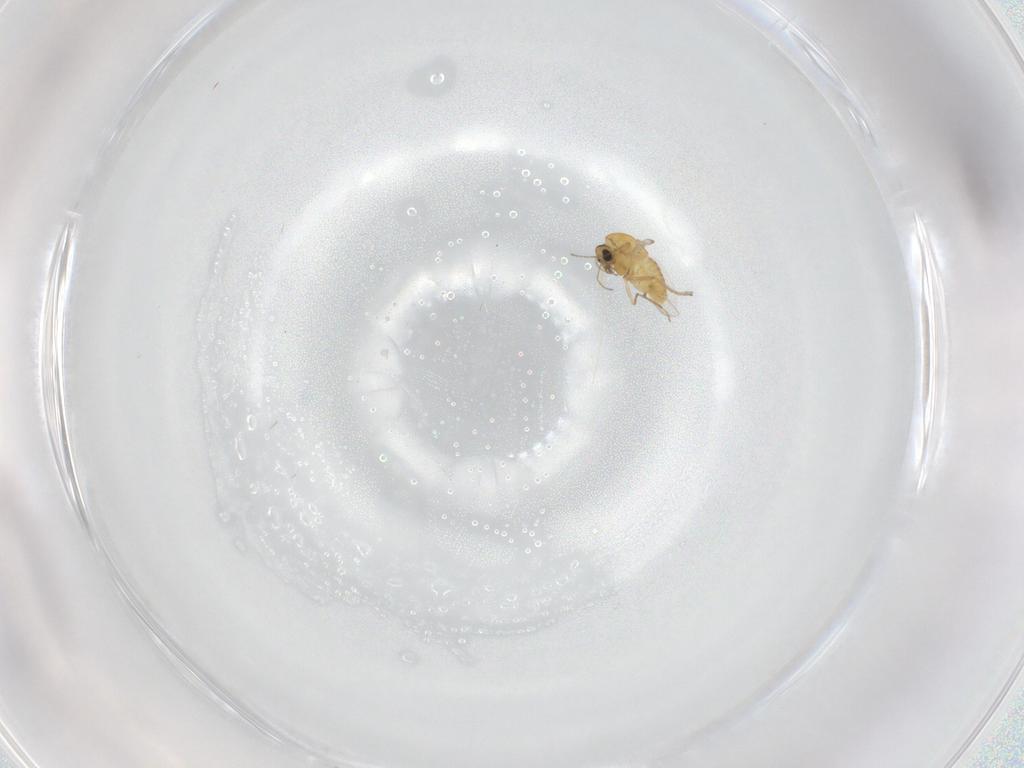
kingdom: Animalia
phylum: Arthropoda
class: Insecta
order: Diptera
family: Chironomidae
